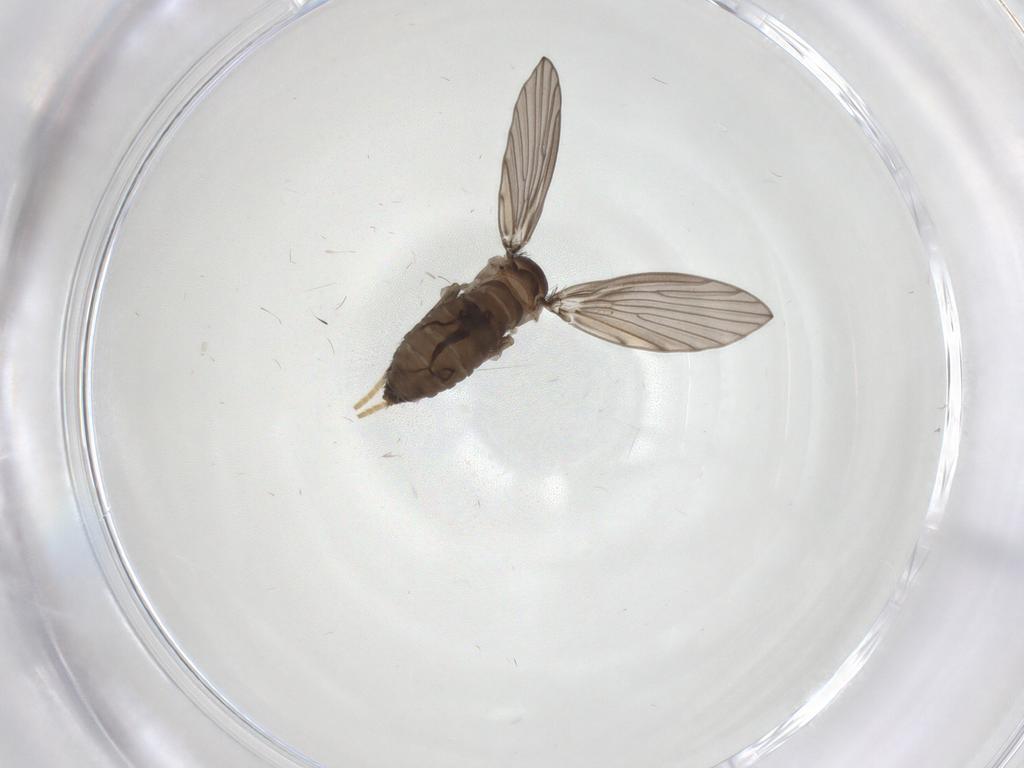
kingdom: Animalia
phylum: Arthropoda
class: Insecta
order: Diptera
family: Psychodidae
